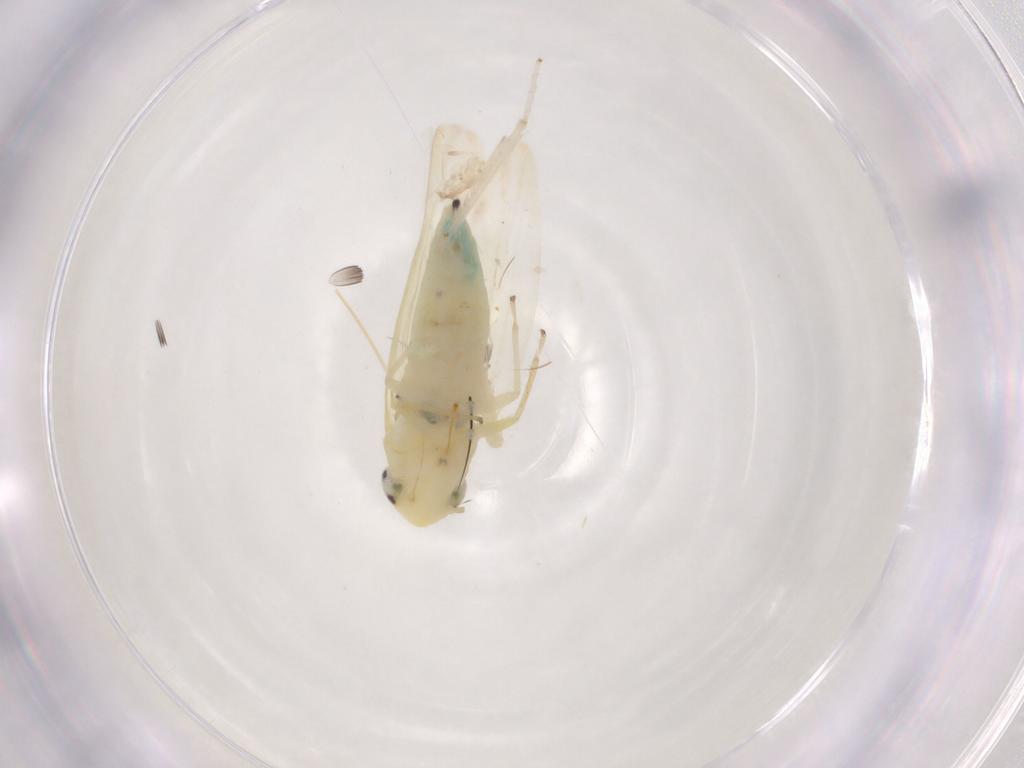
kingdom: Animalia
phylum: Arthropoda
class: Insecta
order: Hemiptera
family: Cicadellidae
